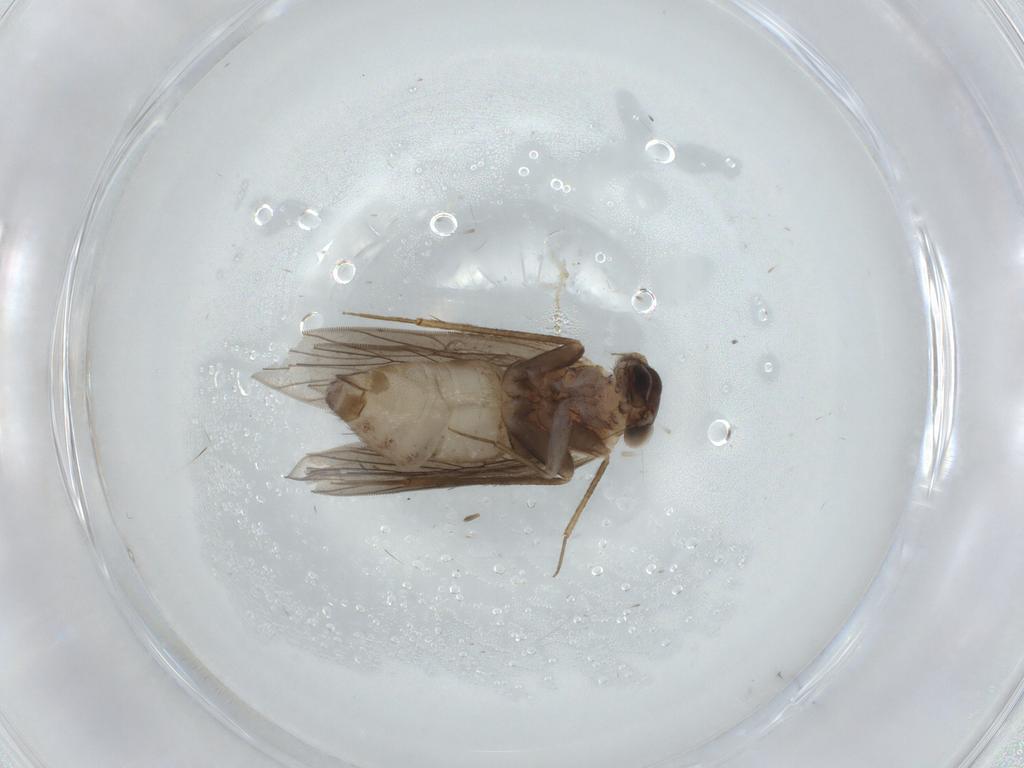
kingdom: Animalia
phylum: Arthropoda
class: Insecta
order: Psocodea
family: Lepidopsocidae
